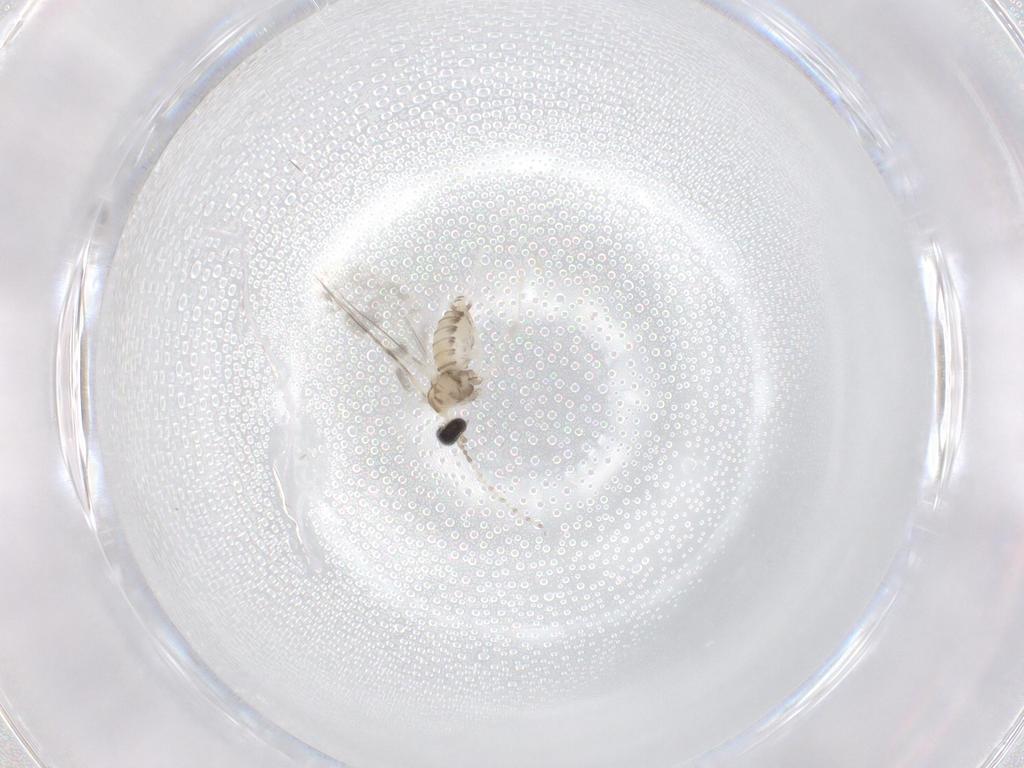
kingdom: Animalia
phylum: Arthropoda
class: Insecta
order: Diptera
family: Cecidomyiidae
